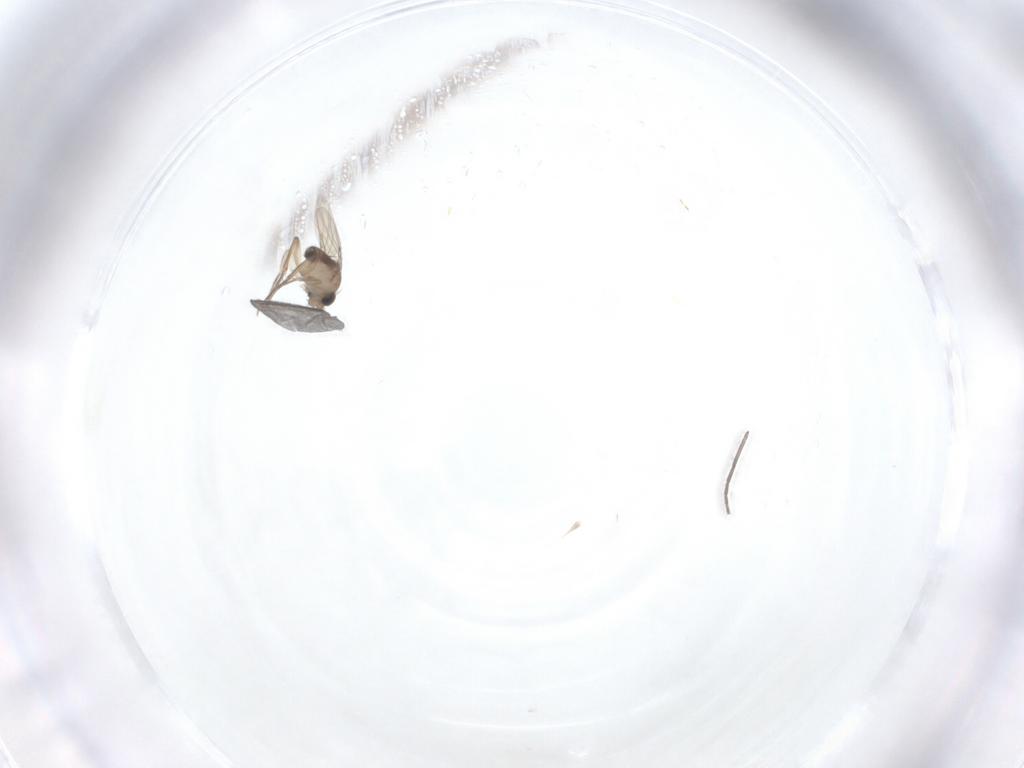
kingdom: Animalia
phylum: Arthropoda
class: Insecta
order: Diptera
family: Phoridae
